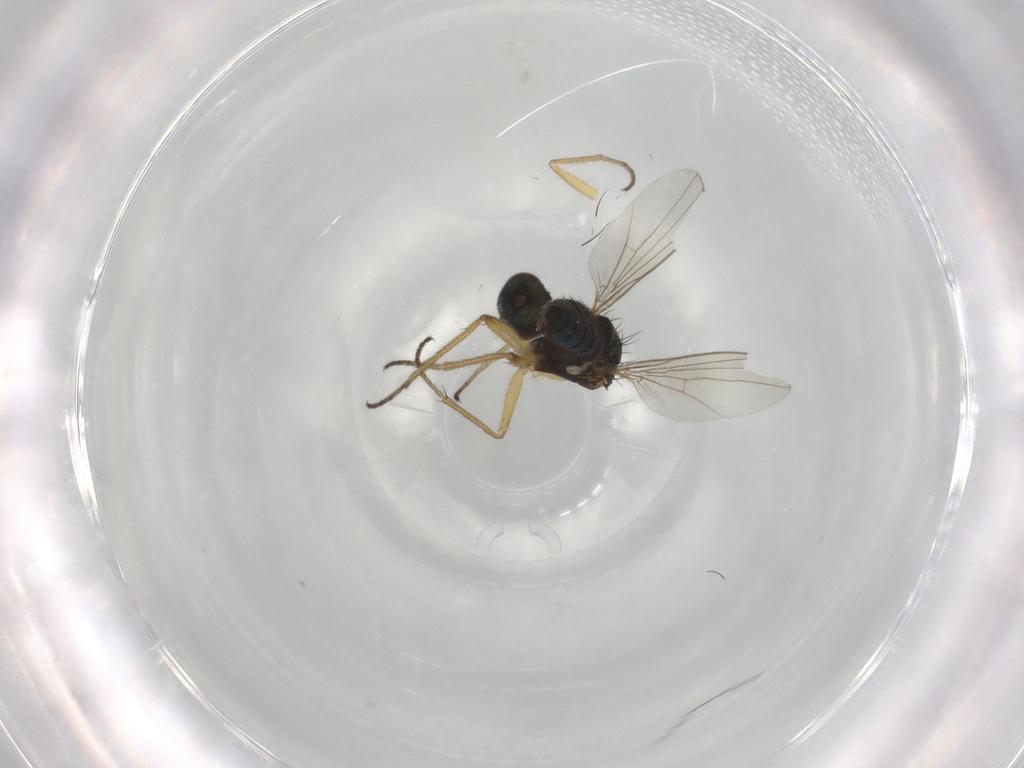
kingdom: Animalia
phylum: Arthropoda
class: Insecta
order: Diptera
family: Dolichopodidae
